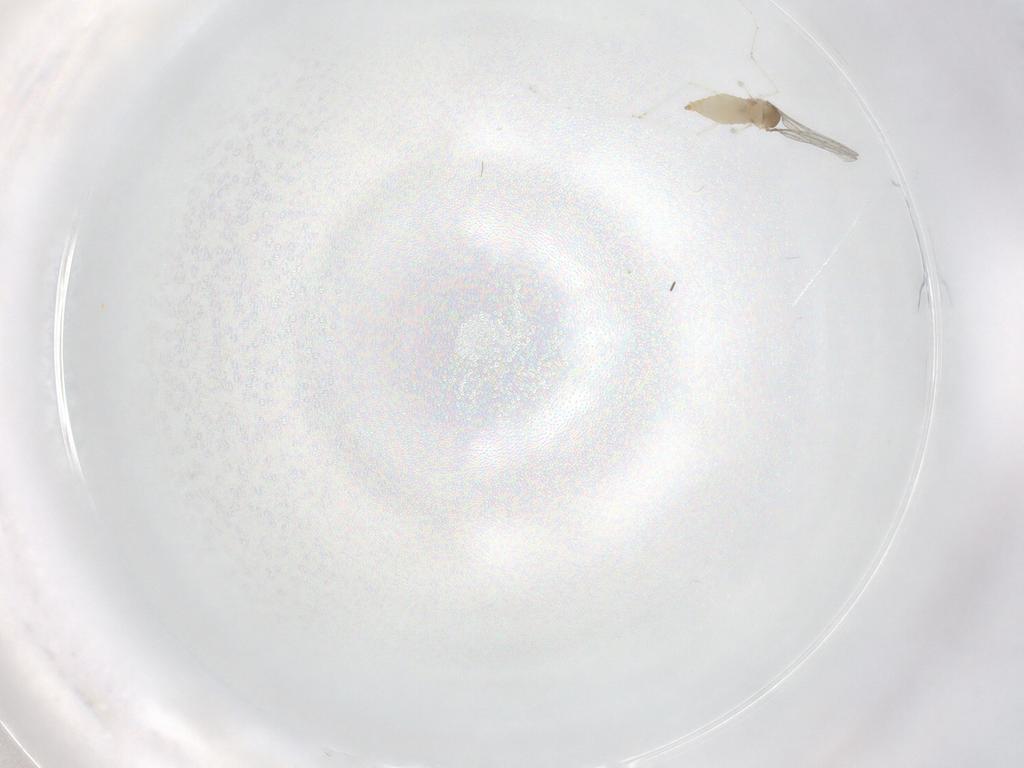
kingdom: Animalia
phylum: Arthropoda
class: Insecta
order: Diptera
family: Cecidomyiidae
